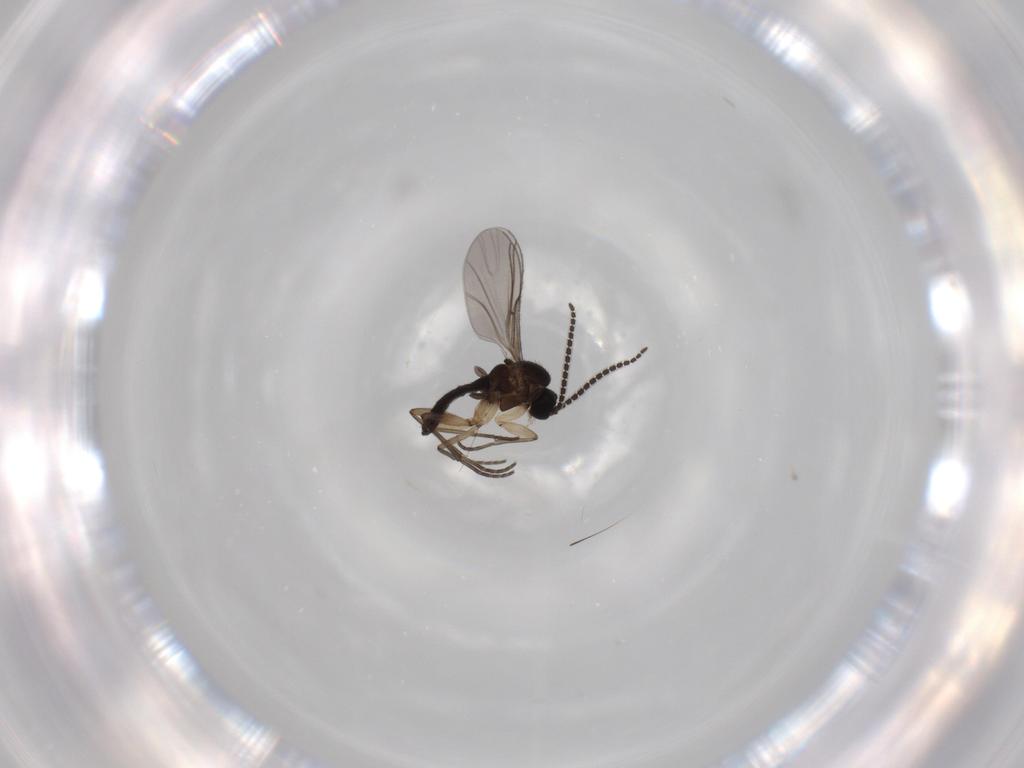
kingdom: Animalia
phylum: Arthropoda
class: Insecta
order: Diptera
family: Sciaridae
